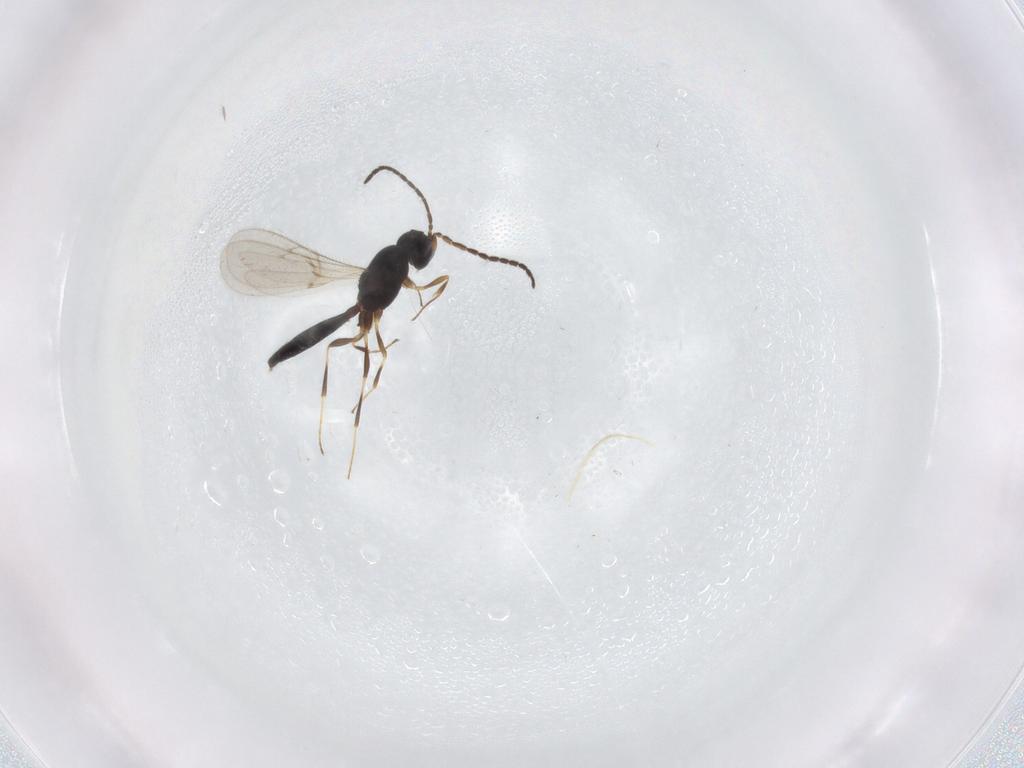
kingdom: Animalia
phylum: Arthropoda
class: Insecta
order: Hymenoptera
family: Scelionidae
